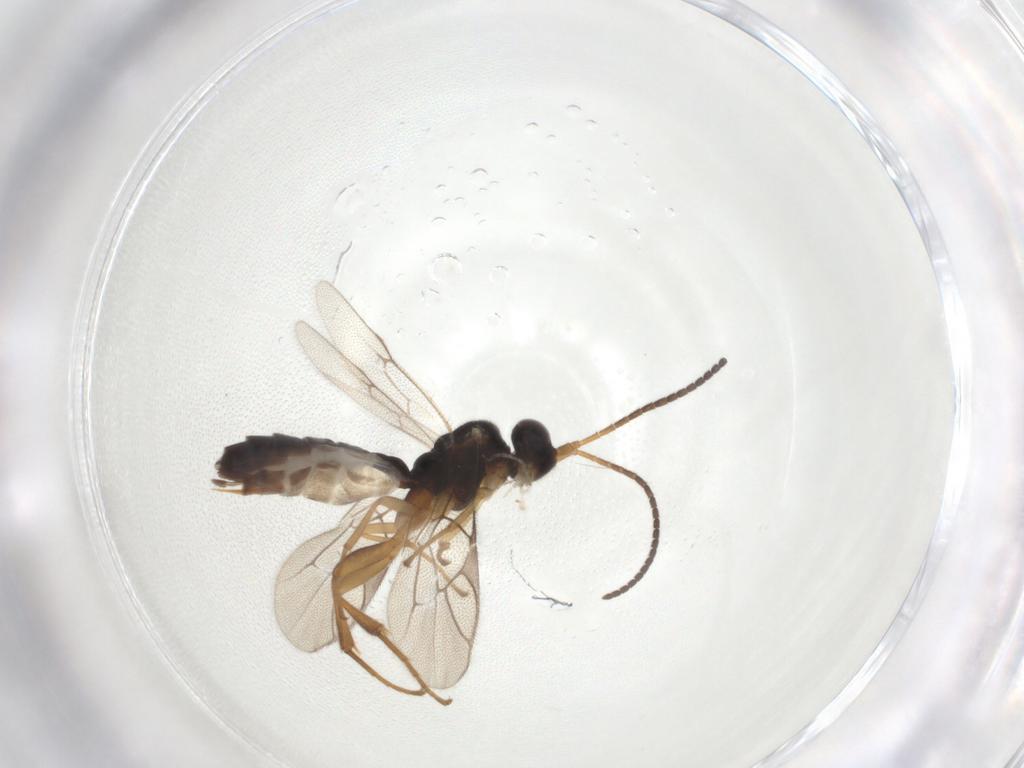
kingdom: Animalia
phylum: Arthropoda
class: Insecta
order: Hymenoptera
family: Ichneumonidae
